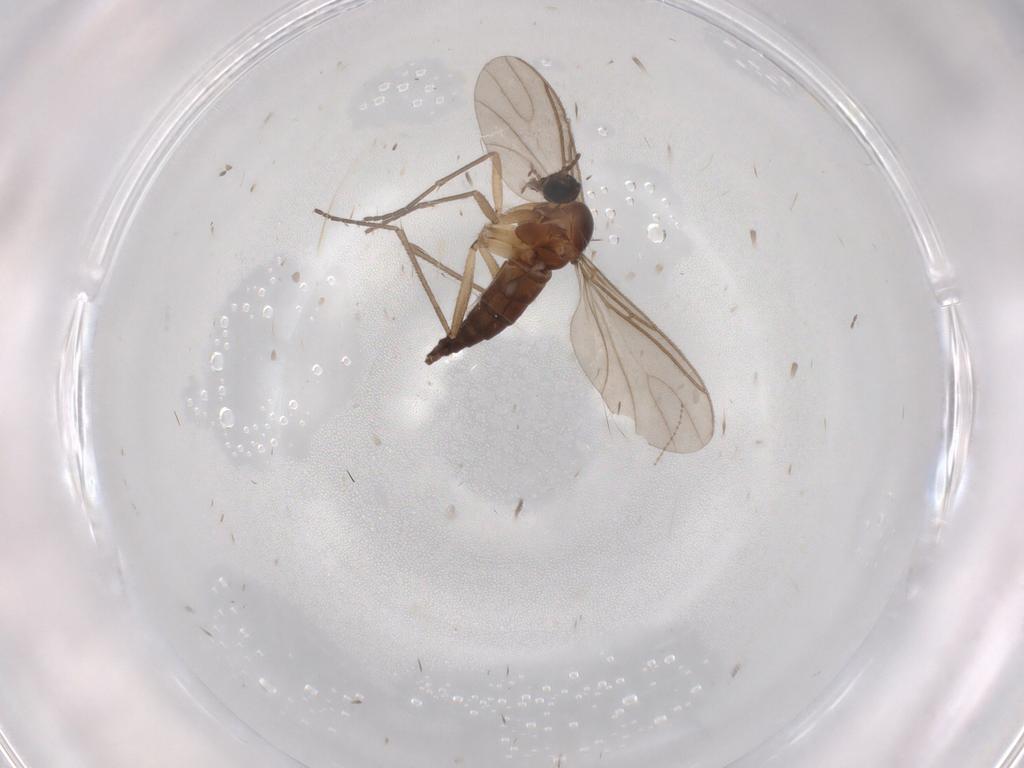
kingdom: Animalia
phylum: Arthropoda
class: Insecta
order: Diptera
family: Sciaridae
